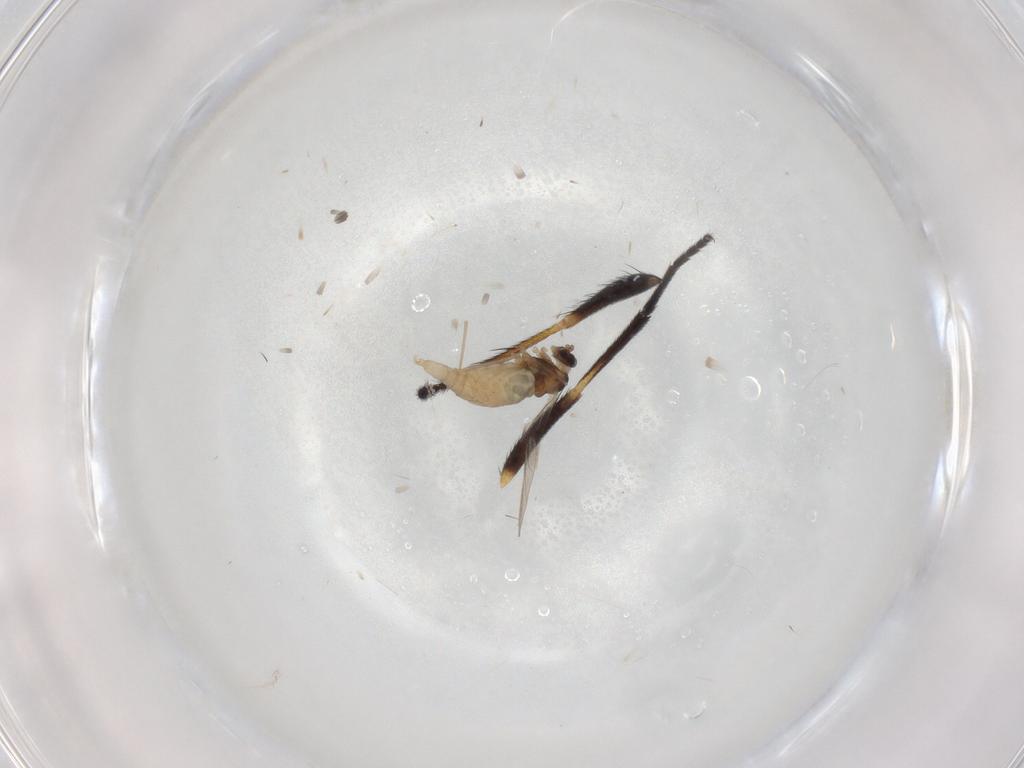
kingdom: Animalia
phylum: Arthropoda
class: Insecta
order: Diptera
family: Cecidomyiidae
